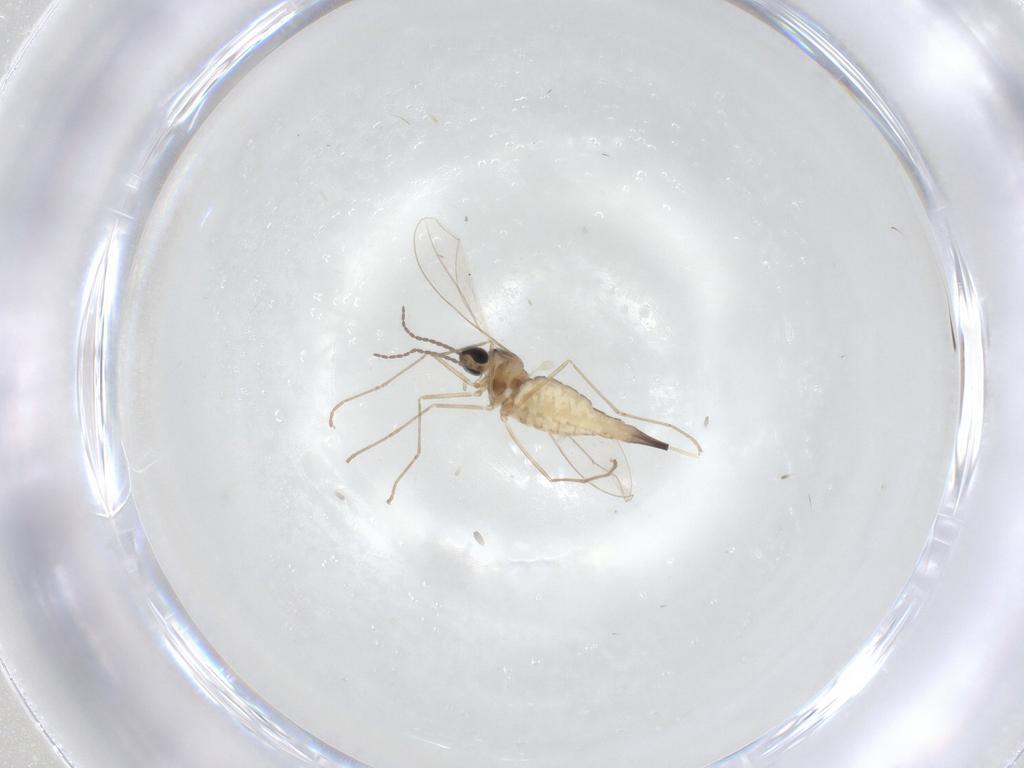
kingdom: Animalia
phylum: Arthropoda
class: Insecta
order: Diptera
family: Cecidomyiidae
